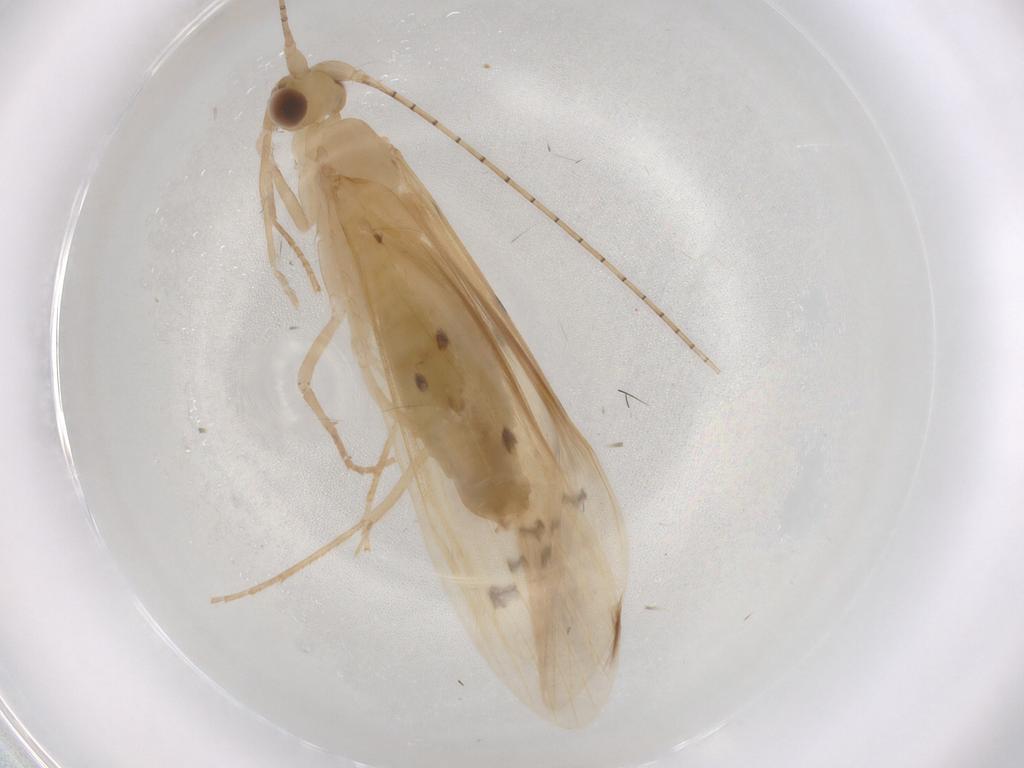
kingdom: Animalia
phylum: Arthropoda
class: Insecta
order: Trichoptera
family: Leptoceridae
